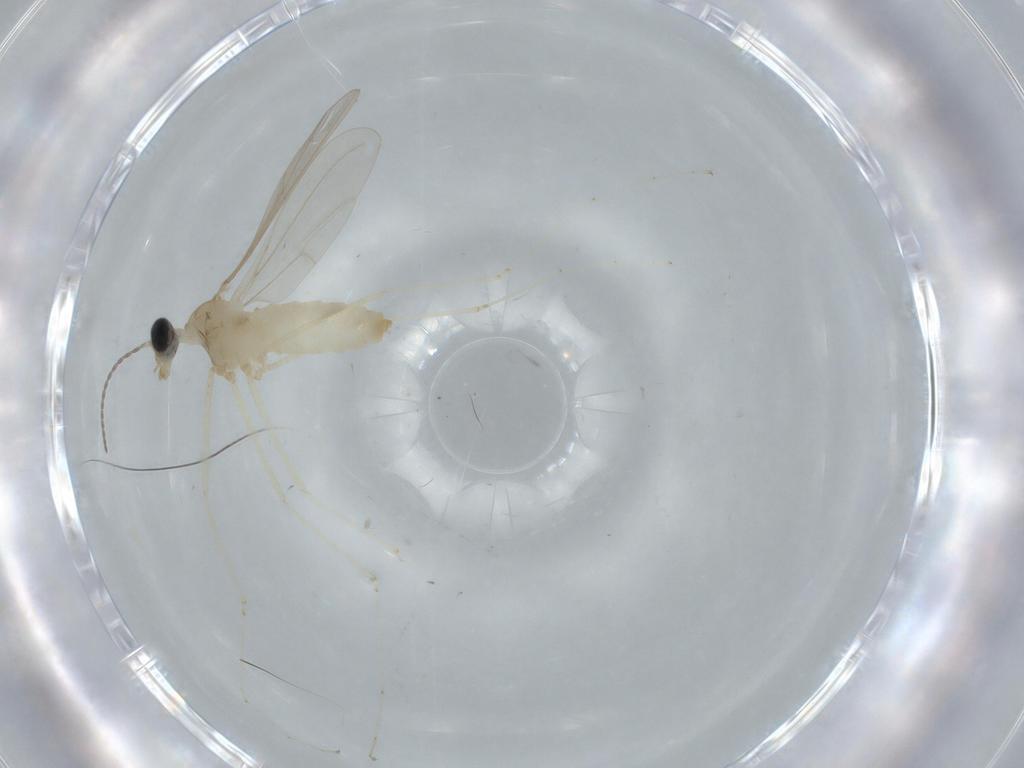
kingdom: Animalia
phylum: Arthropoda
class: Insecta
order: Diptera
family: Cecidomyiidae
